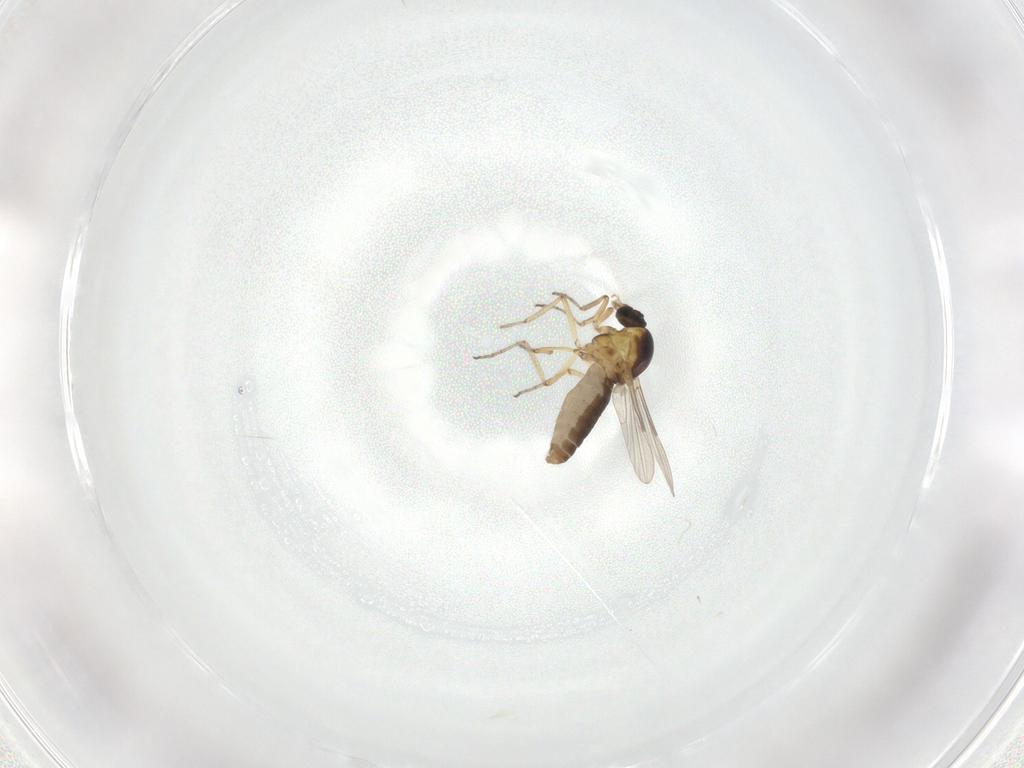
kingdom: Animalia
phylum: Arthropoda
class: Insecta
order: Diptera
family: Ceratopogonidae
